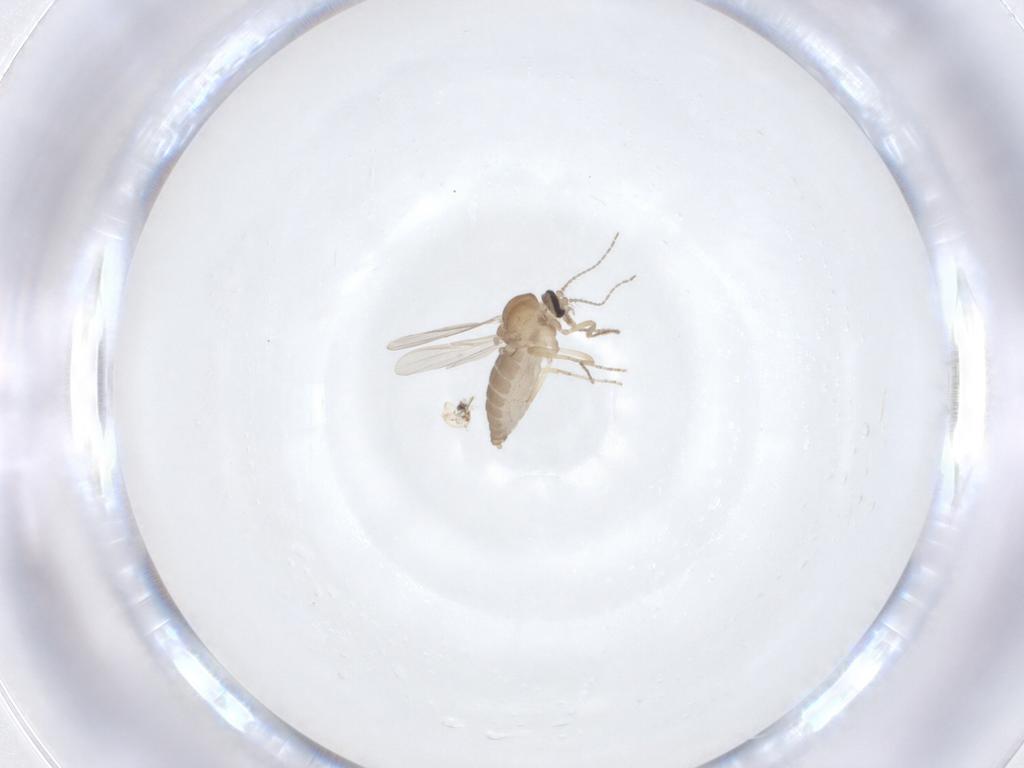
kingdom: Animalia
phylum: Arthropoda
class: Insecta
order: Diptera
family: Ceratopogonidae
